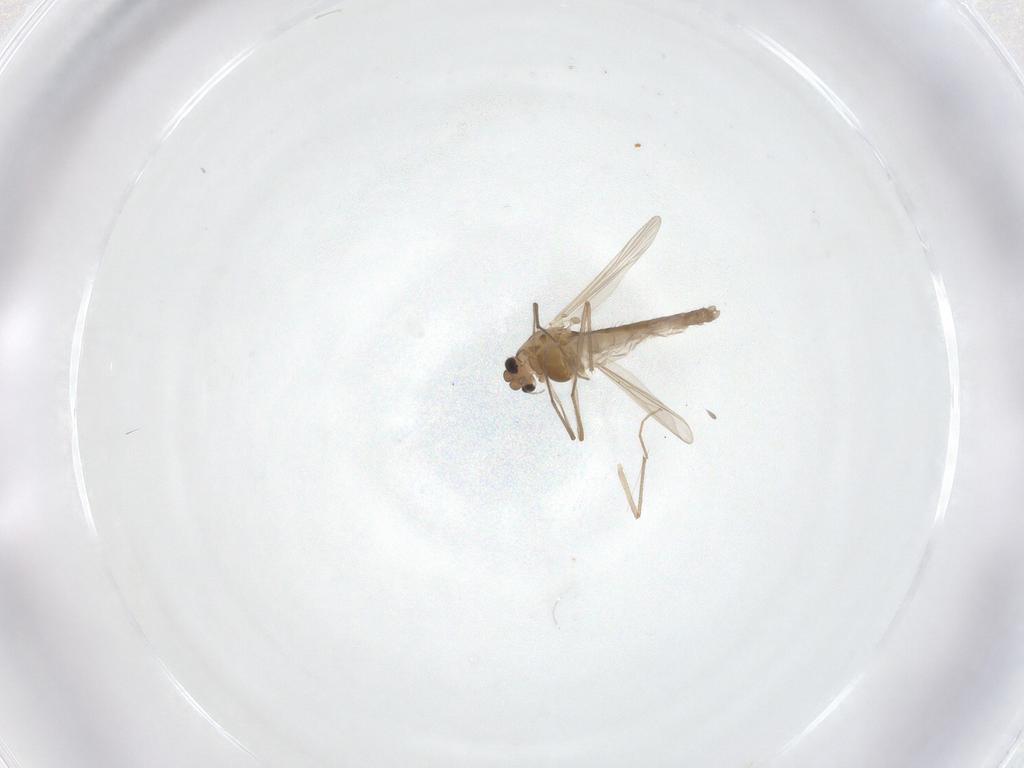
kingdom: Animalia
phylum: Arthropoda
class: Insecta
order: Diptera
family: Chironomidae
